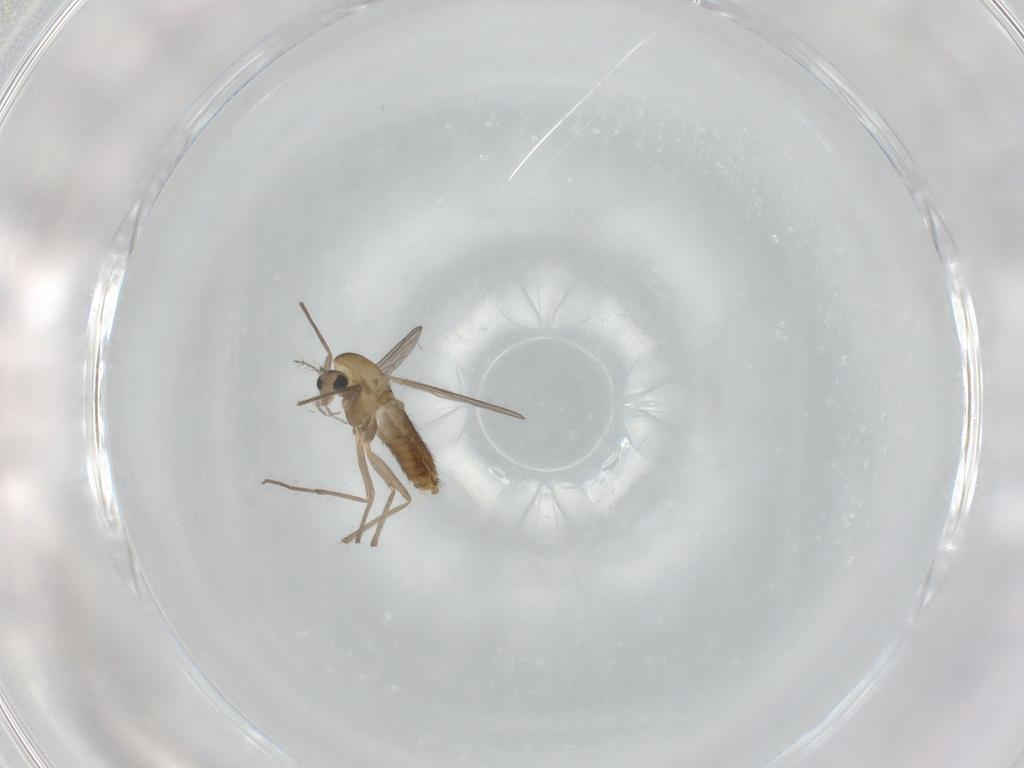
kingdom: Animalia
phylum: Arthropoda
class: Insecta
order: Diptera
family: Chironomidae
